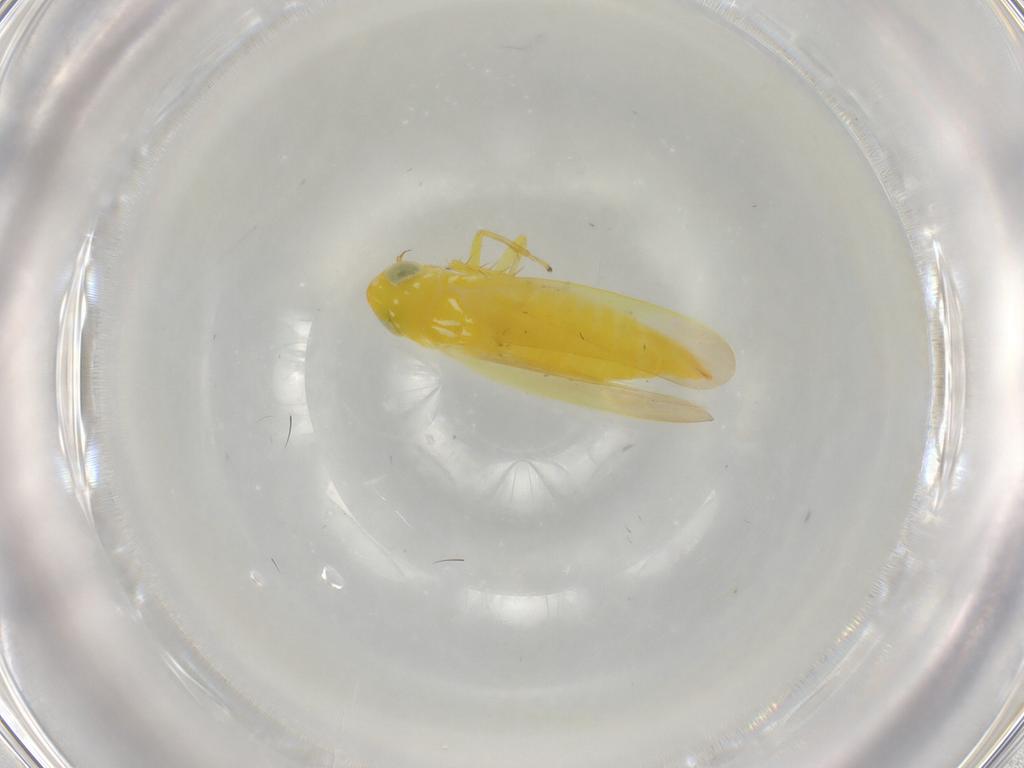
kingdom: Animalia
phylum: Arthropoda
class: Insecta
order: Hemiptera
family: Cicadellidae
